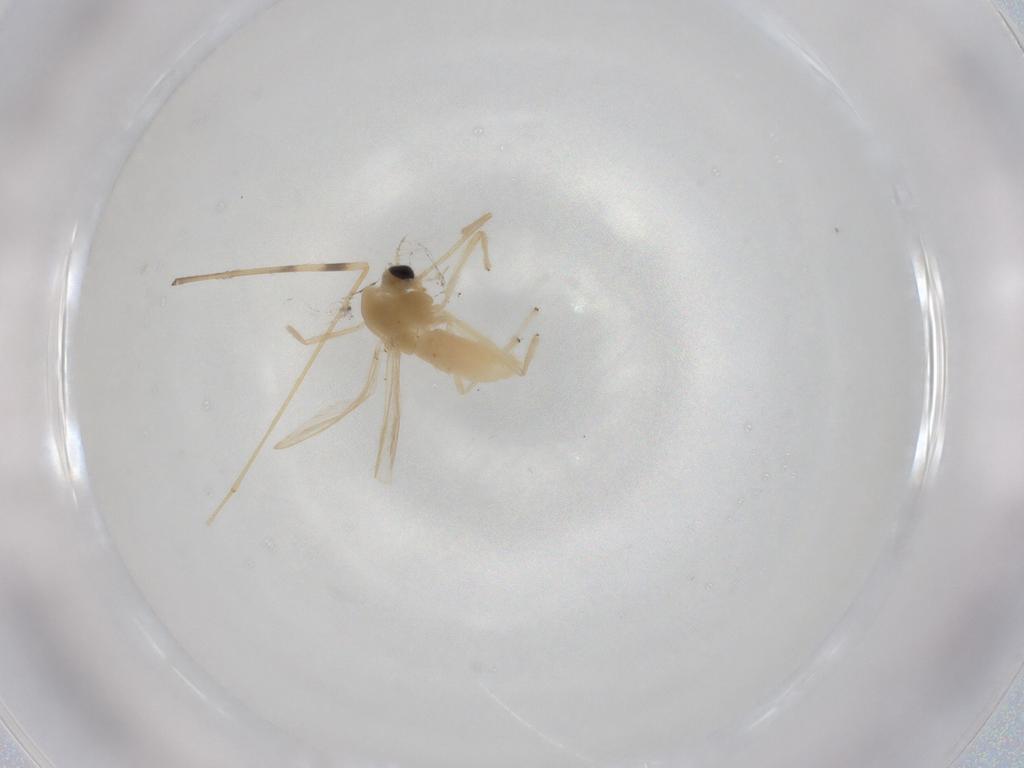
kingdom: Animalia
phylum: Arthropoda
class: Insecta
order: Diptera
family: Chironomidae
